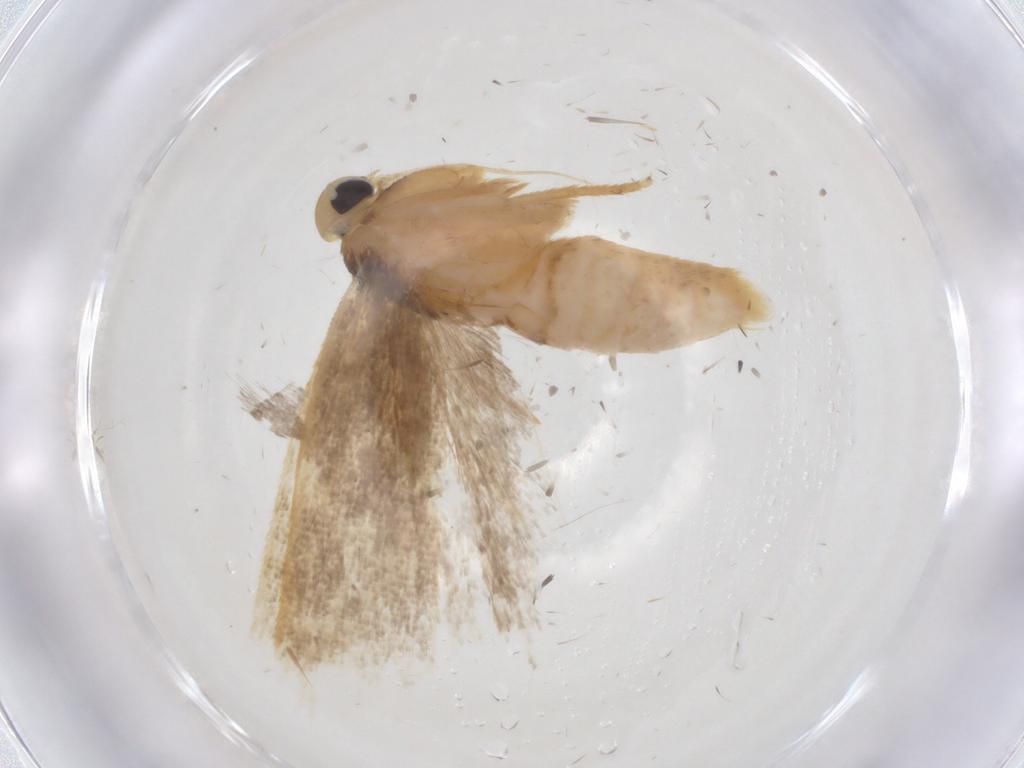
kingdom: Animalia
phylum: Arthropoda
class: Insecta
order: Lepidoptera
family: Gelechiidae
